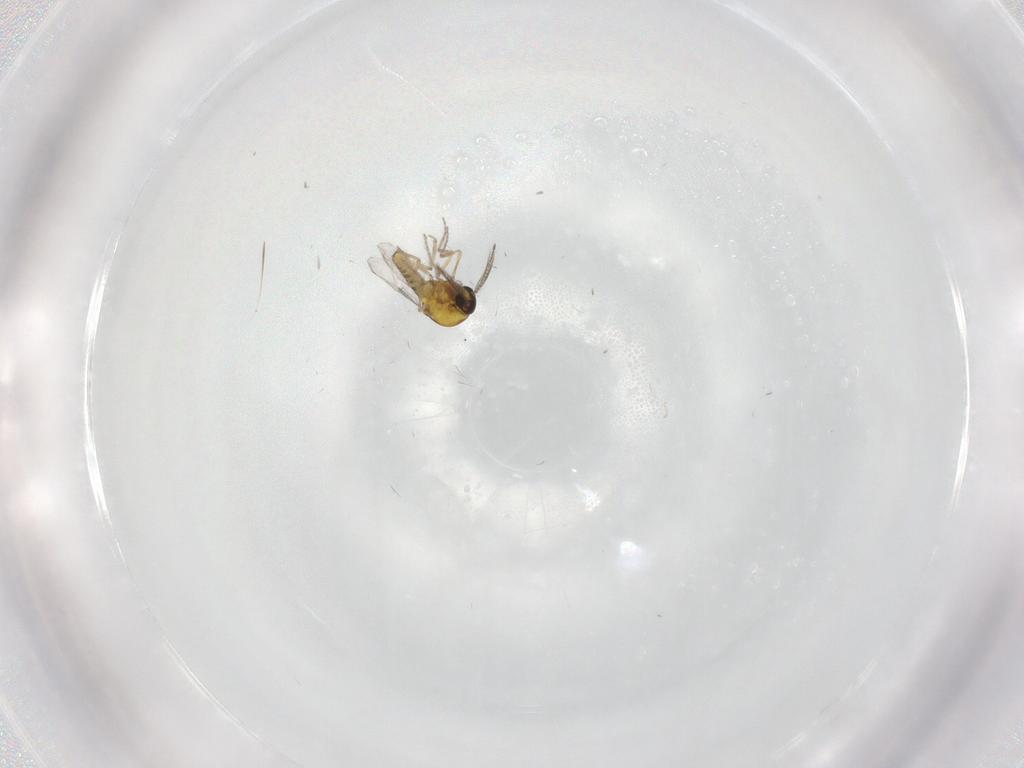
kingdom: Animalia
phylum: Arthropoda
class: Insecta
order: Diptera
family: Ceratopogonidae
